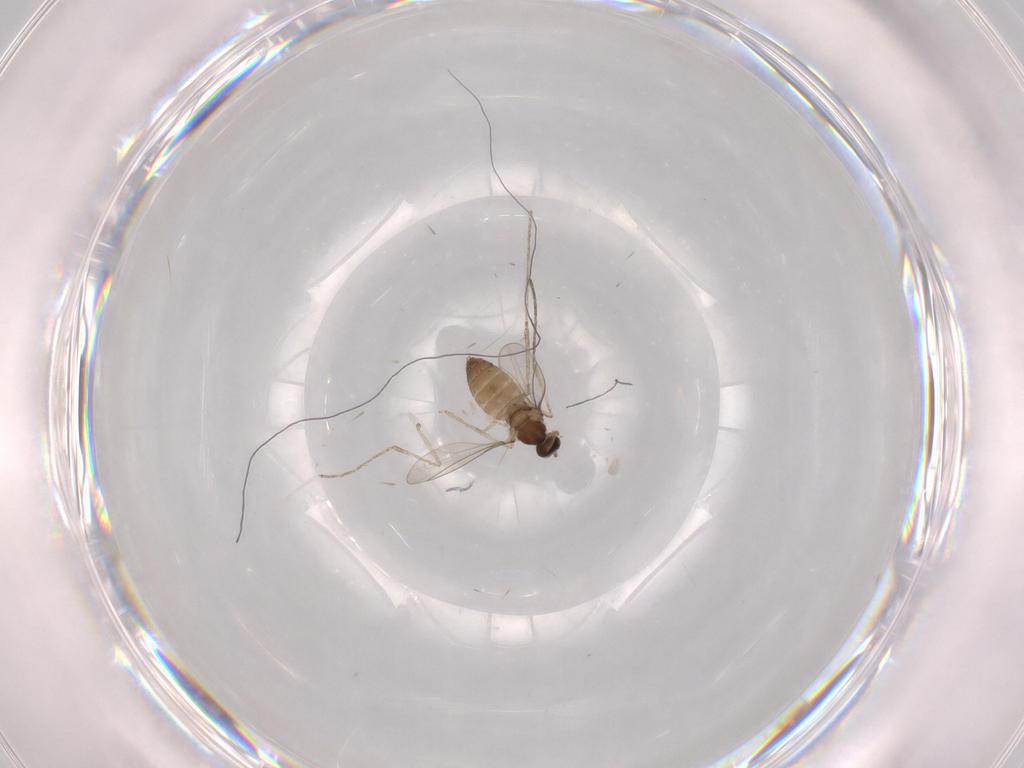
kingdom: Animalia
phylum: Arthropoda
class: Insecta
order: Diptera
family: Cecidomyiidae
